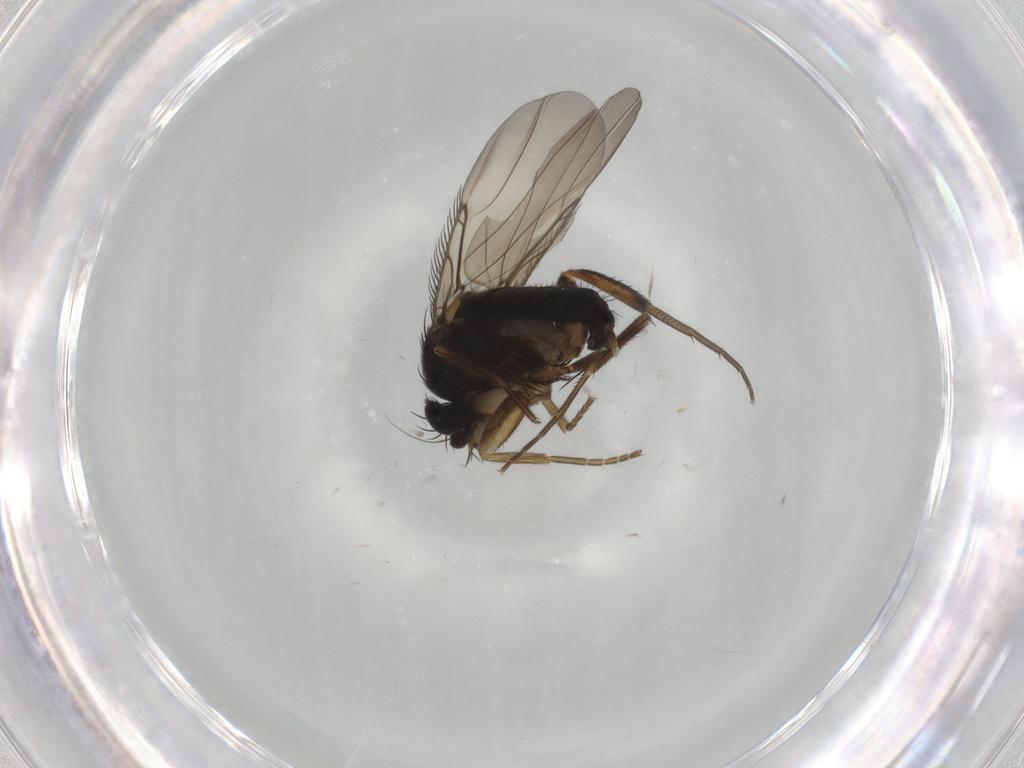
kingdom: Animalia
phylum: Arthropoda
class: Insecta
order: Diptera
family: Phoridae
